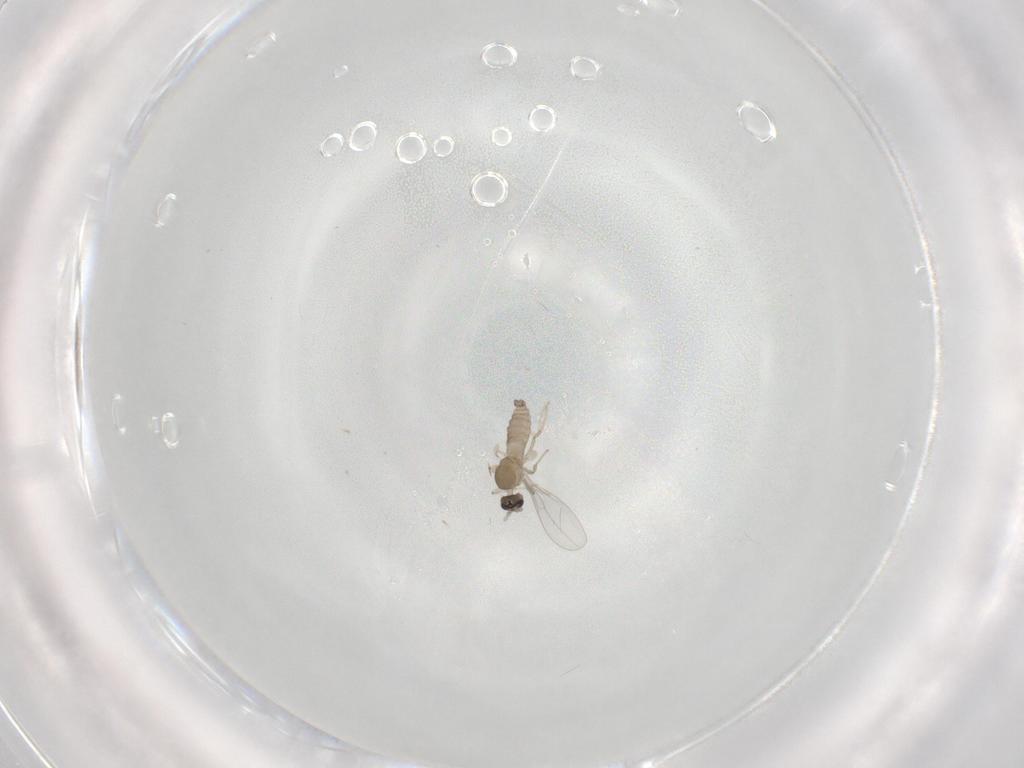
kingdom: Animalia
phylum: Arthropoda
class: Insecta
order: Diptera
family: Cecidomyiidae
